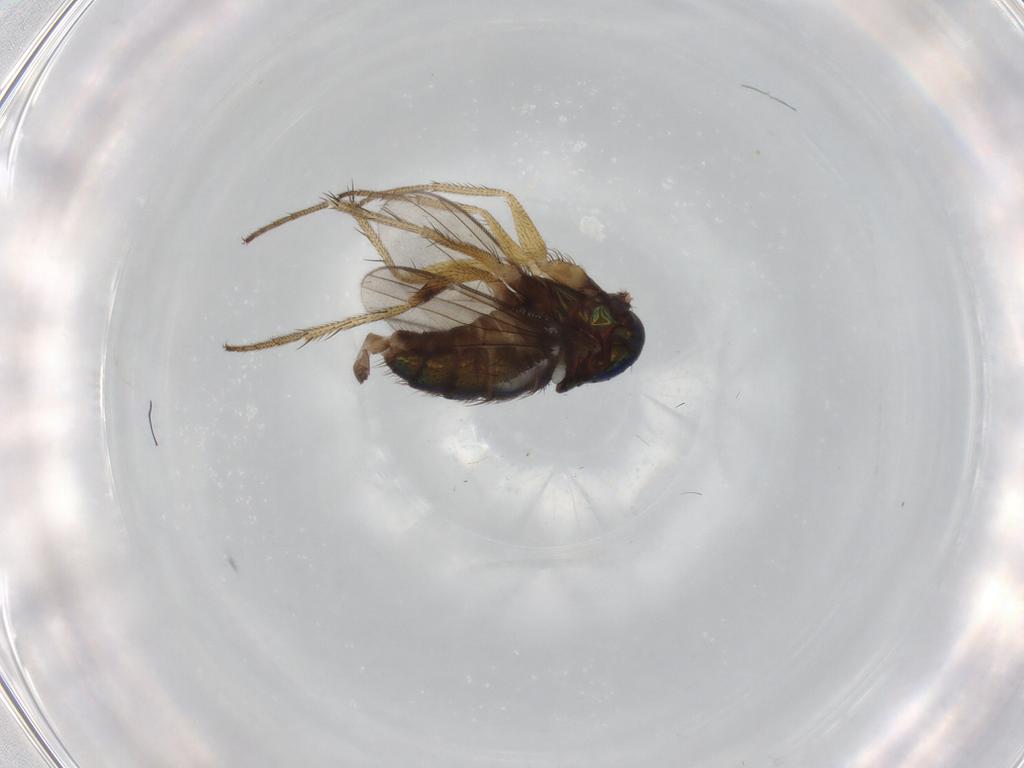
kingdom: Animalia
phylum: Arthropoda
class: Insecta
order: Diptera
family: Dolichopodidae
